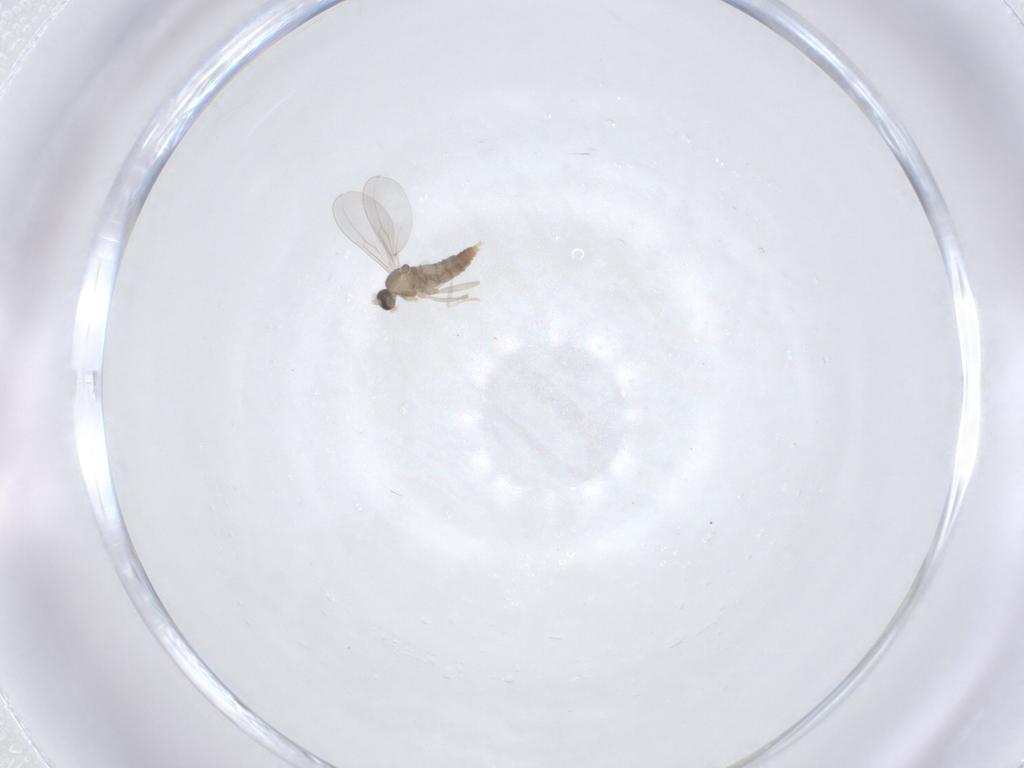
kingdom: Animalia
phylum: Arthropoda
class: Insecta
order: Diptera
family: Cecidomyiidae
